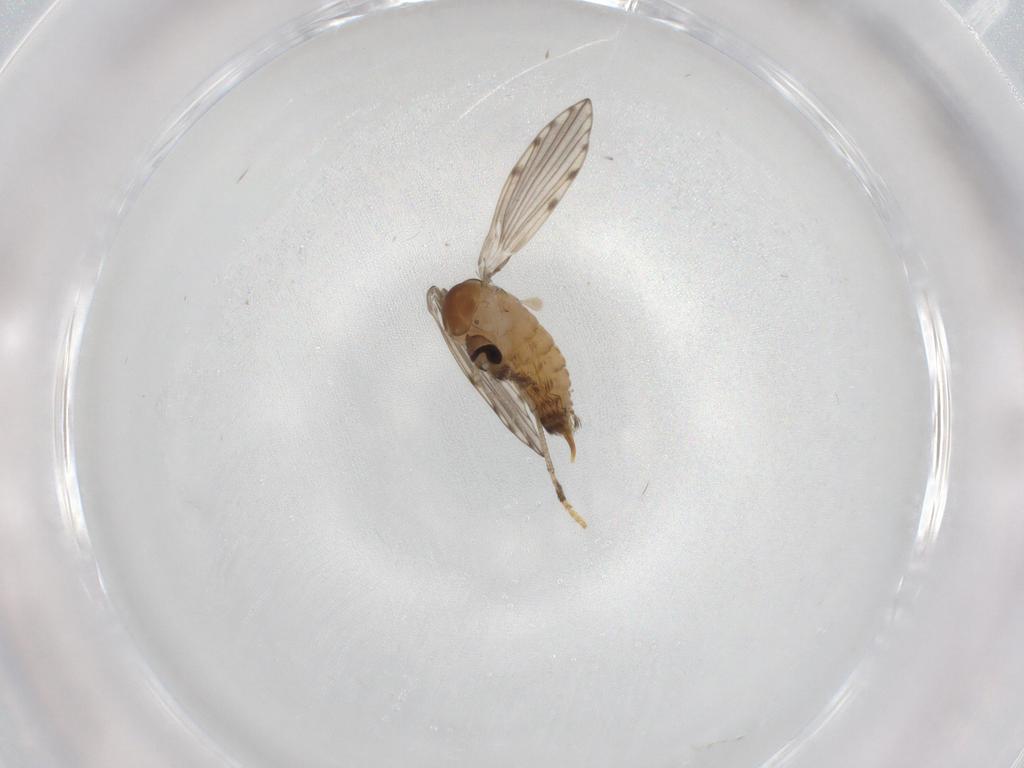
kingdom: Animalia
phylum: Arthropoda
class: Insecta
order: Diptera
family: Psychodidae
